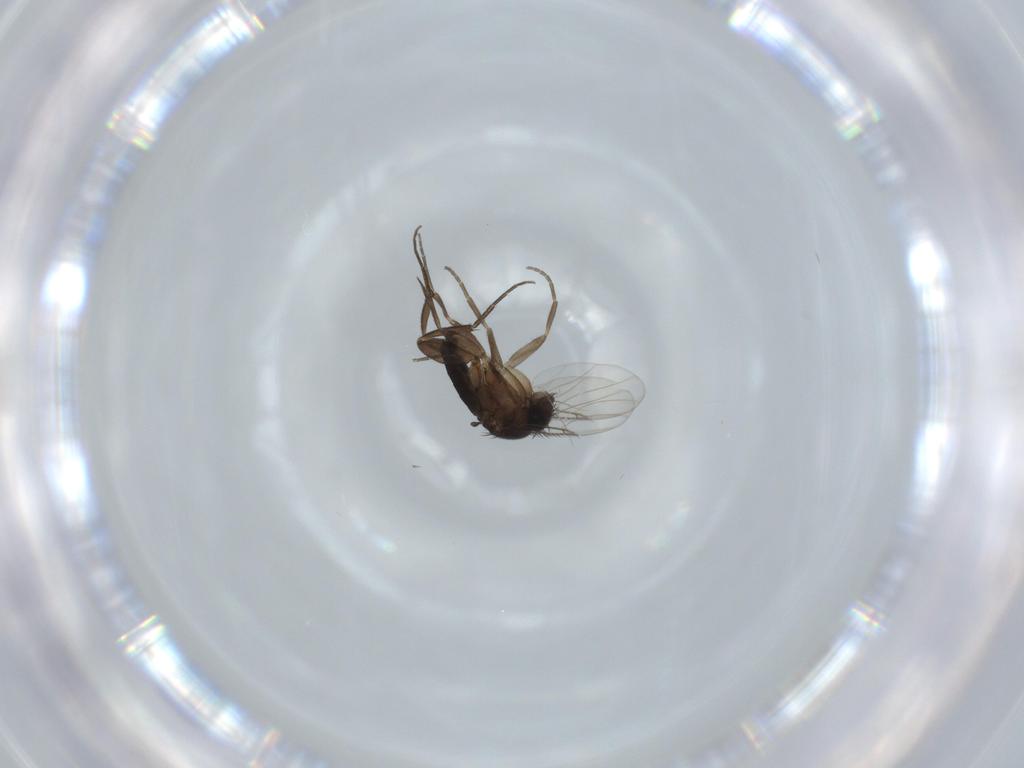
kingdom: Animalia
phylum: Arthropoda
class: Insecta
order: Diptera
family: Phoridae
